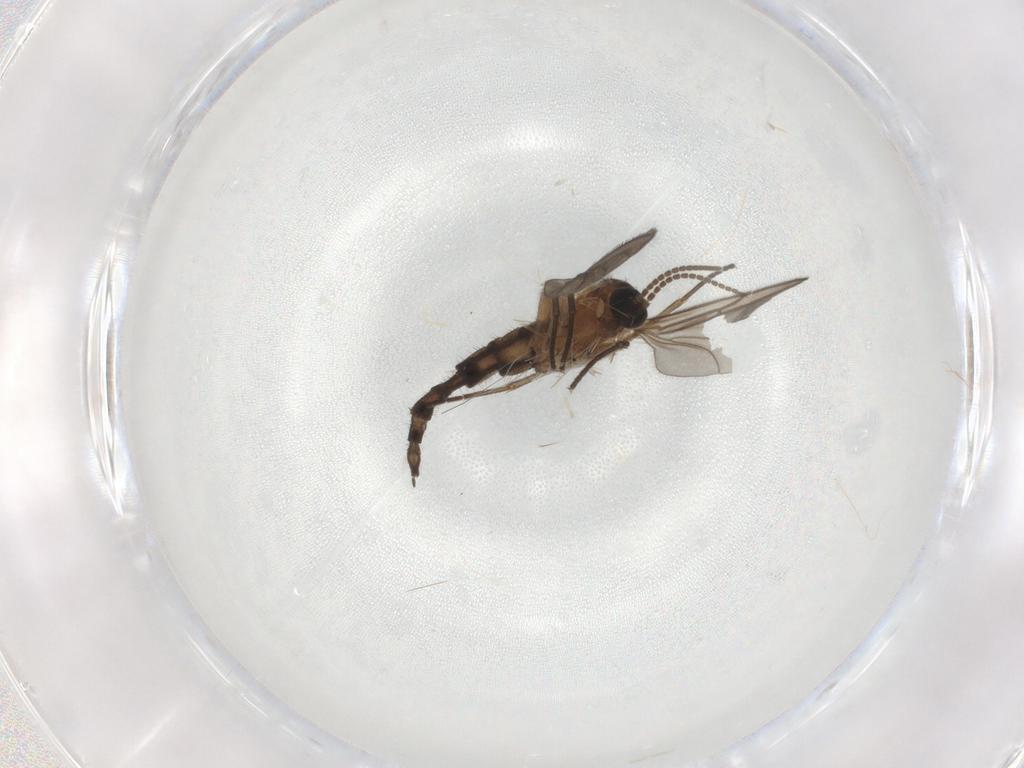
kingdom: Animalia
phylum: Arthropoda
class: Insecta
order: Diptera
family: Sciaridae
